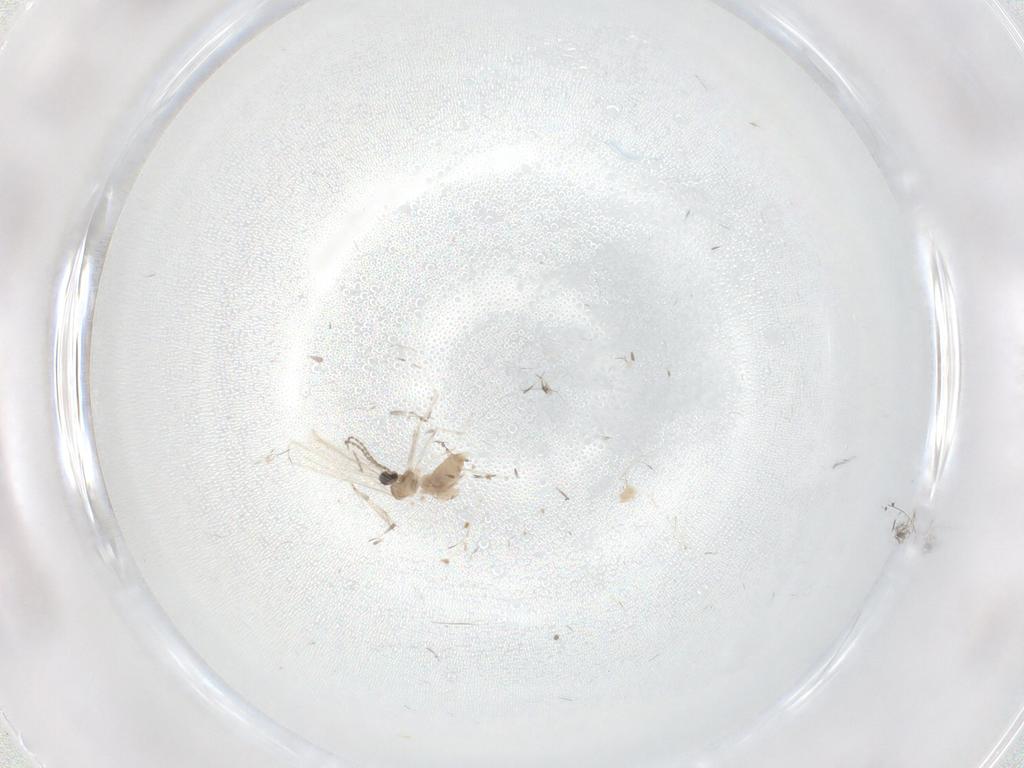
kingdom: Animalia
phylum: Arthropoda
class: Insecta
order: Diptera
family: Cecidomyiidae
